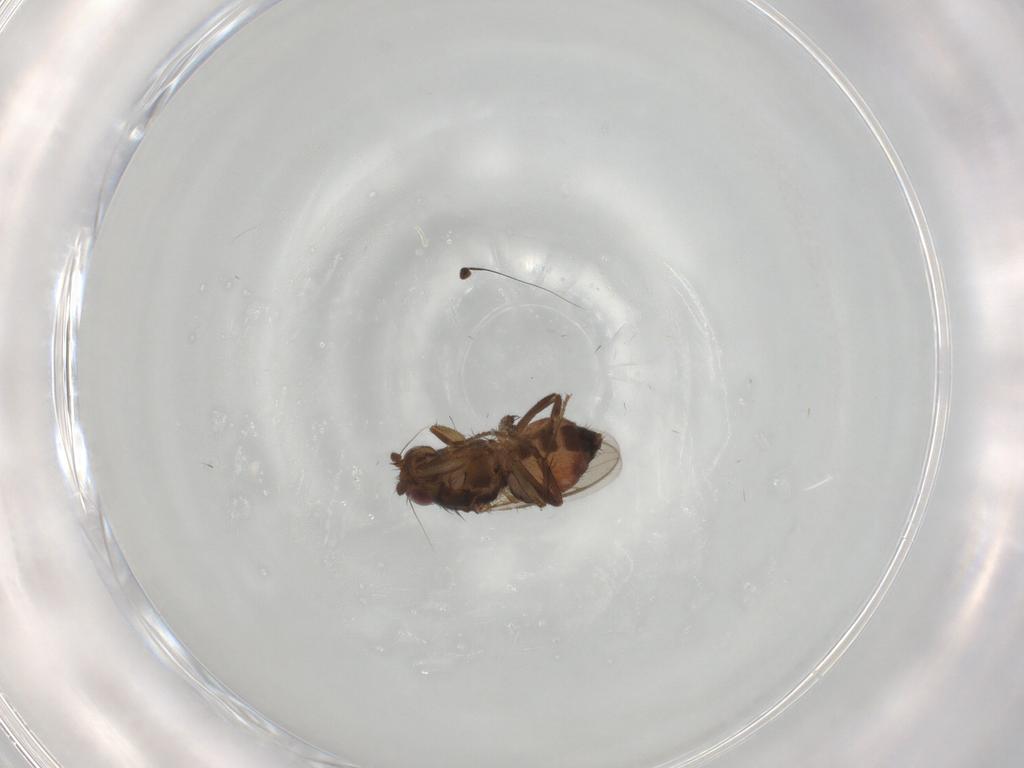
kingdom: Animalia
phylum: Arthropoda
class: Insecta
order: Diptera
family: Dolichopodidae
